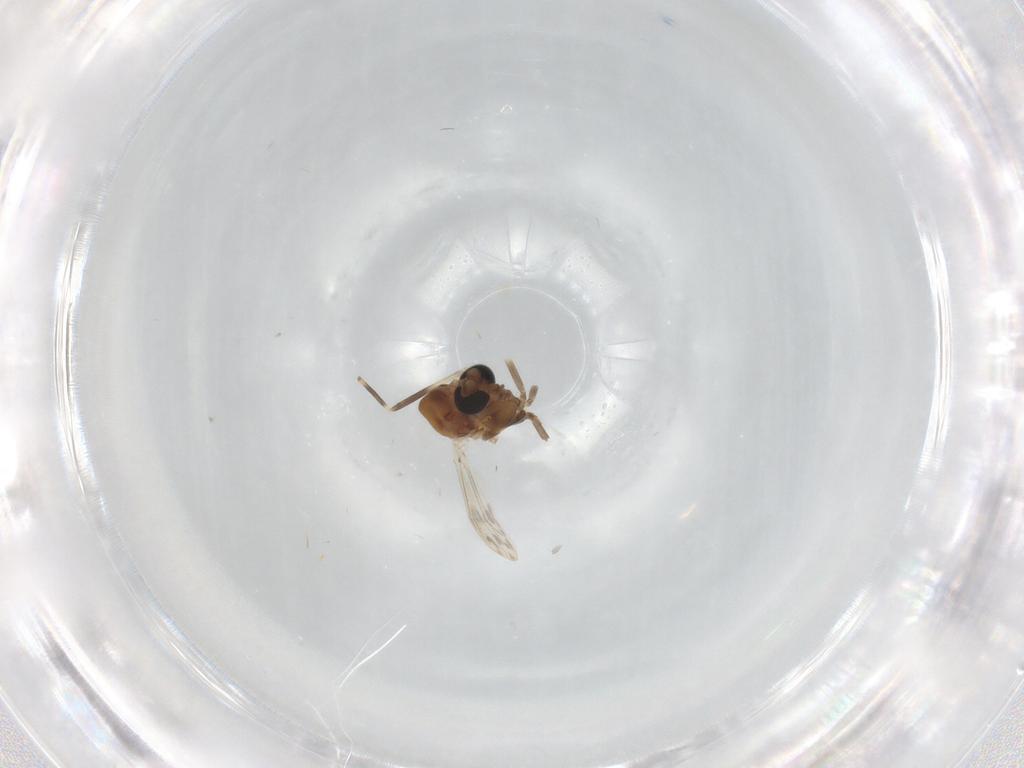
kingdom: Animalia
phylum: Arthropoda
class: Insecta
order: Diptera
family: Chironomidae
